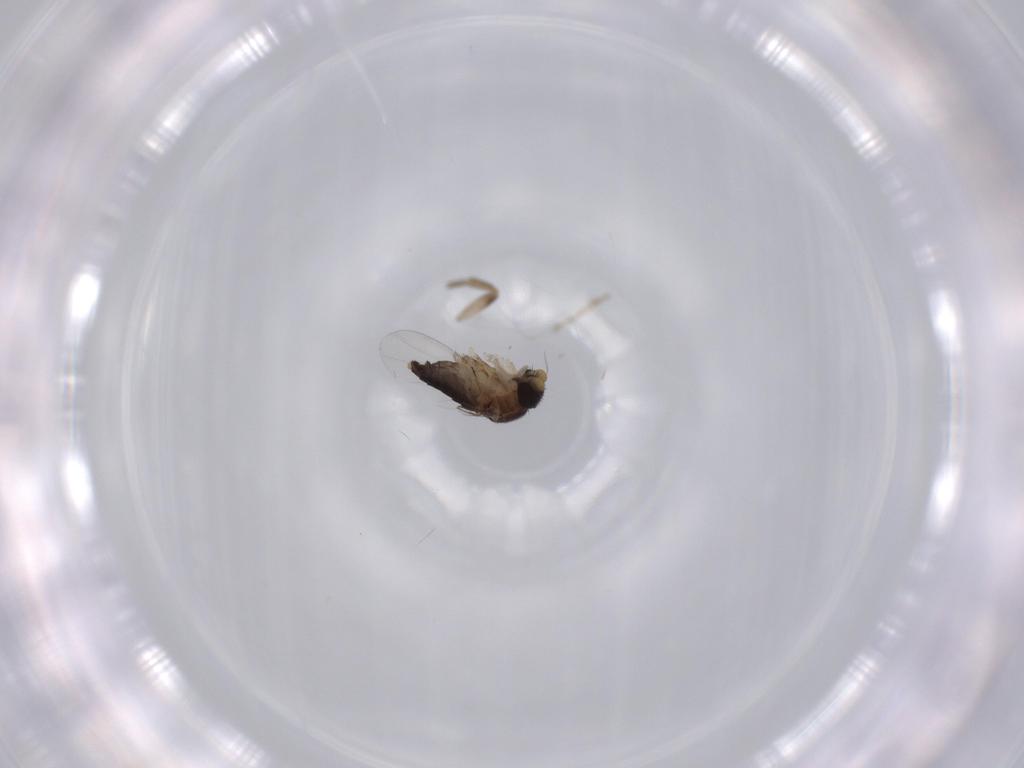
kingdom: Animalia
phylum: Arthropoda
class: Insecta
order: Diptera
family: Phoridae
